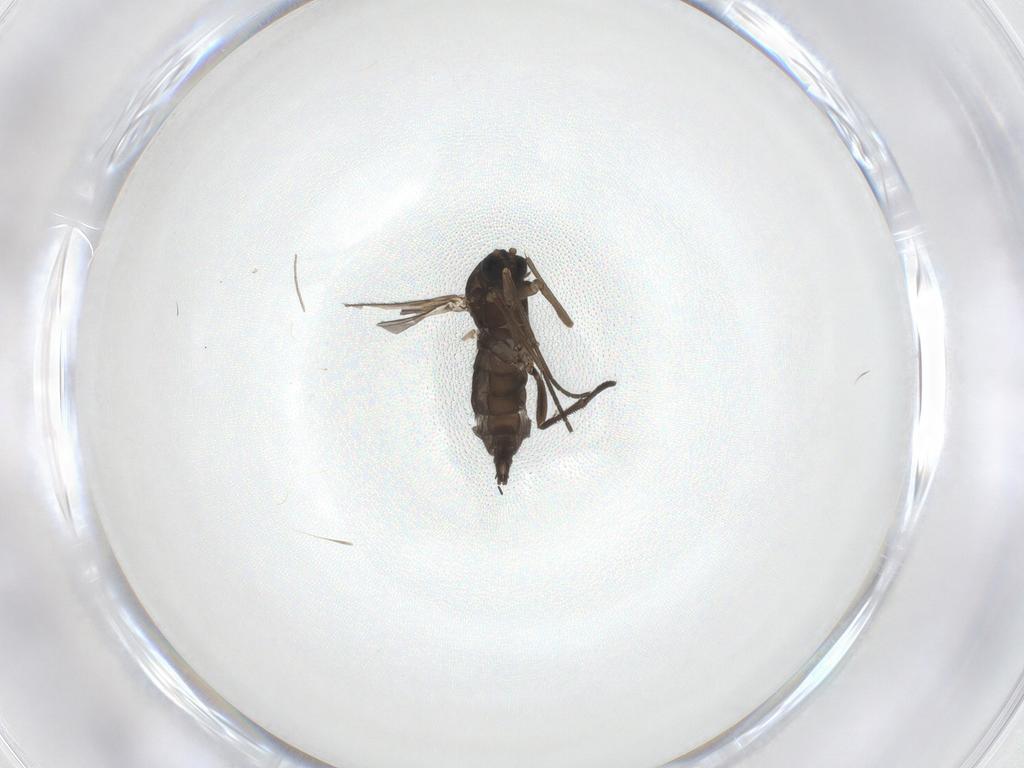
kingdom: Animalia
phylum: Arthropoda
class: Insecta
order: Diptera
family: Sciaridae
